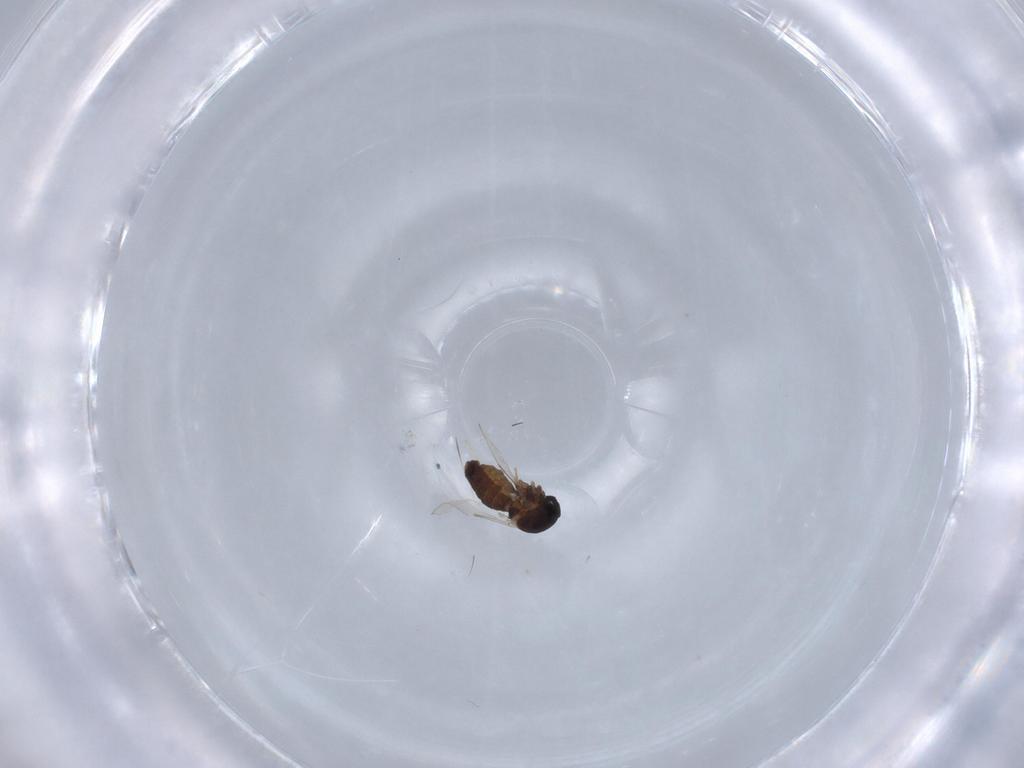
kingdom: Animalia
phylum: Arthropoda
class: Insecta
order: Diptera
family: Ceratopogonidae
